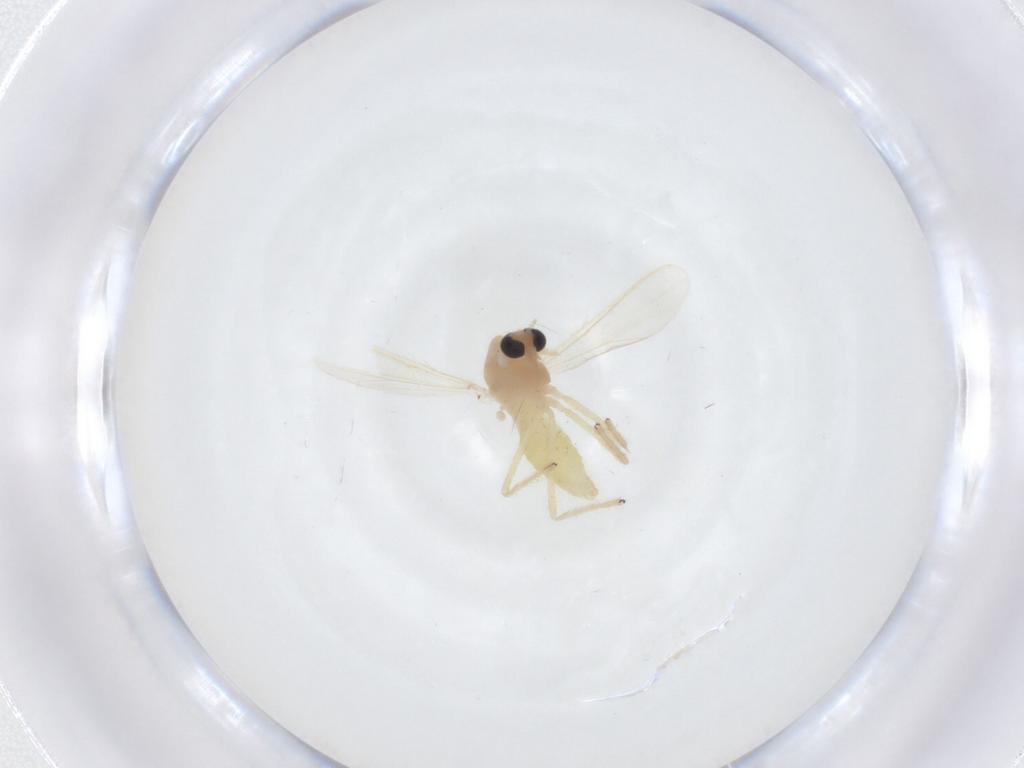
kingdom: Animalia
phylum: Arthropoda
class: Insecta
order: Diptera
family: Chironomidae
